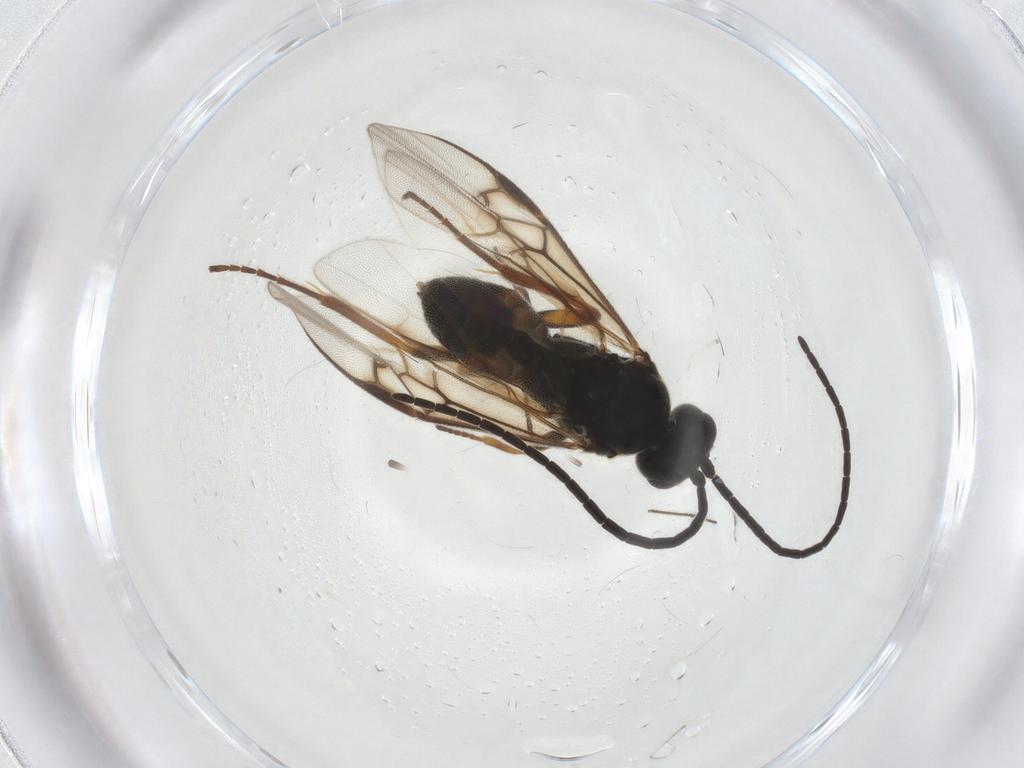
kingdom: Animalia
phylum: Arthropoda
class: Insecta
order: Hymenoptera
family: Braconidae
